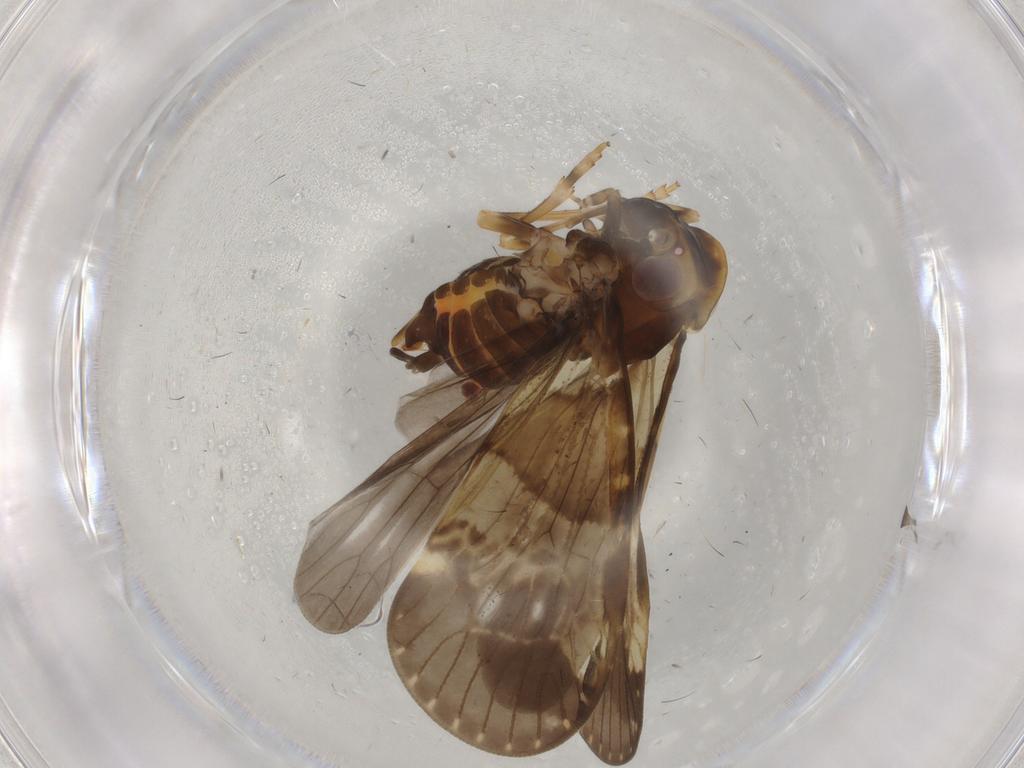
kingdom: Animalia
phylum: Arthropoda
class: Insecta
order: Hemiptera
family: Cixiidae
